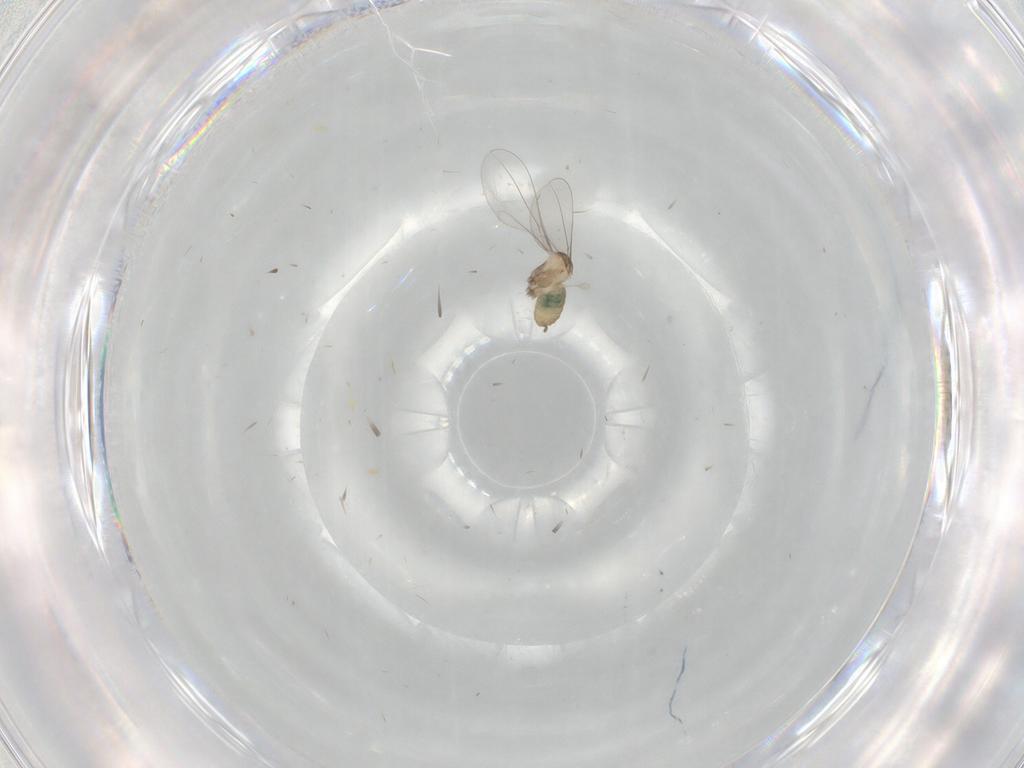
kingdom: Animalia
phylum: Arthropoda
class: Insecta
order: Diptera
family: Cecidomyiidae
